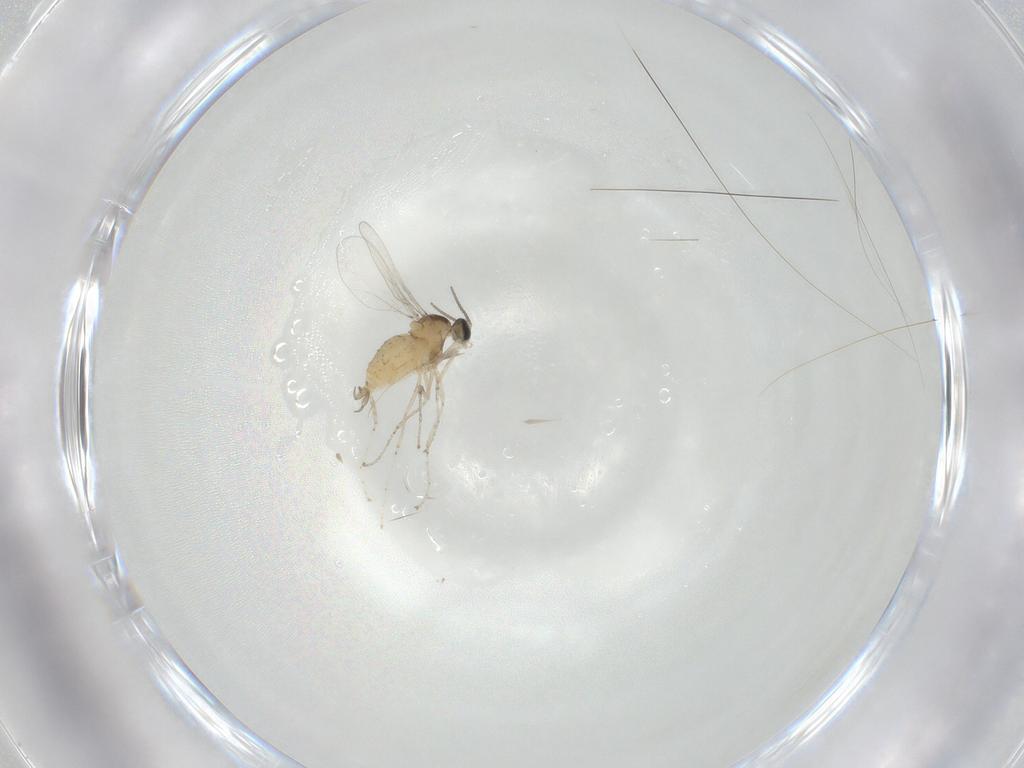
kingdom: Animalia
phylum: Arthropoda
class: Insecta
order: Diptera
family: Cecidomyiidae
